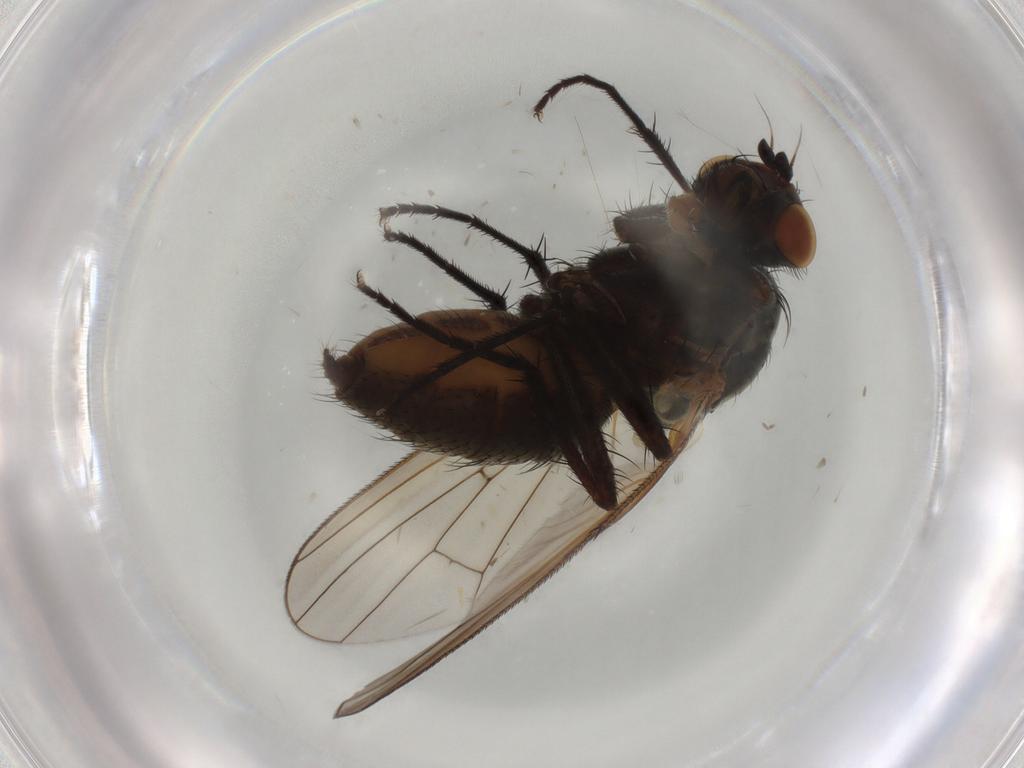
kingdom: Animalia
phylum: Arthropoda
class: Insecta
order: Diptera
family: Anthomyiidae
